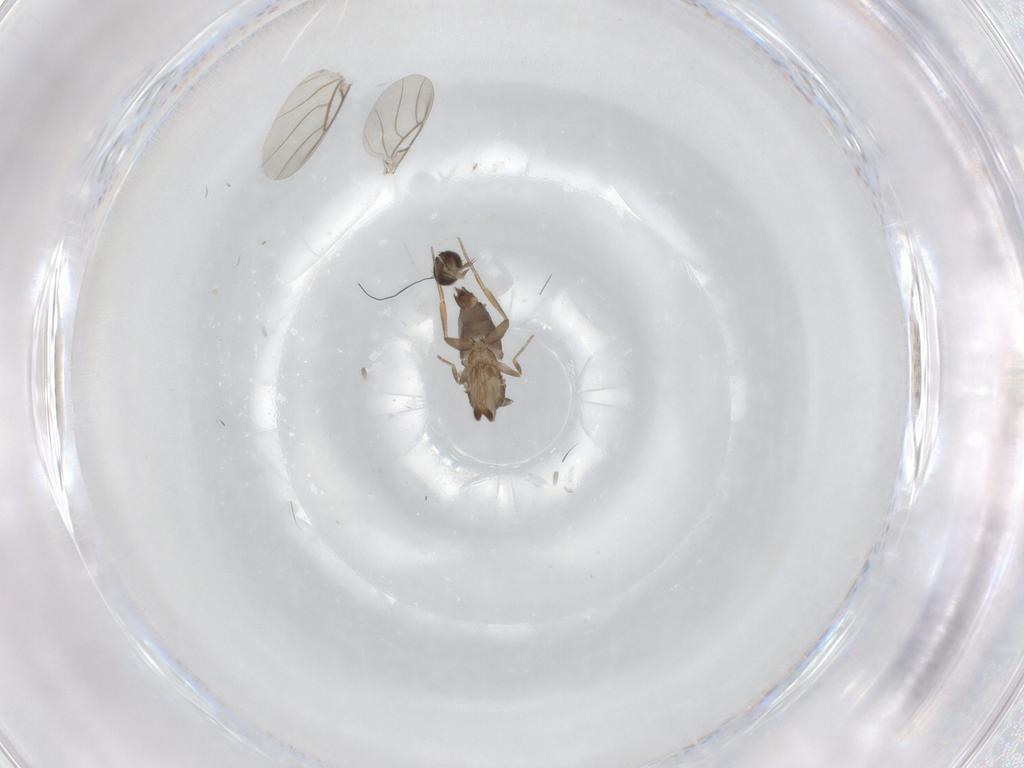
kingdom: Animalia
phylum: Arthropoda
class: Insecta
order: Diptera
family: Phoridae
